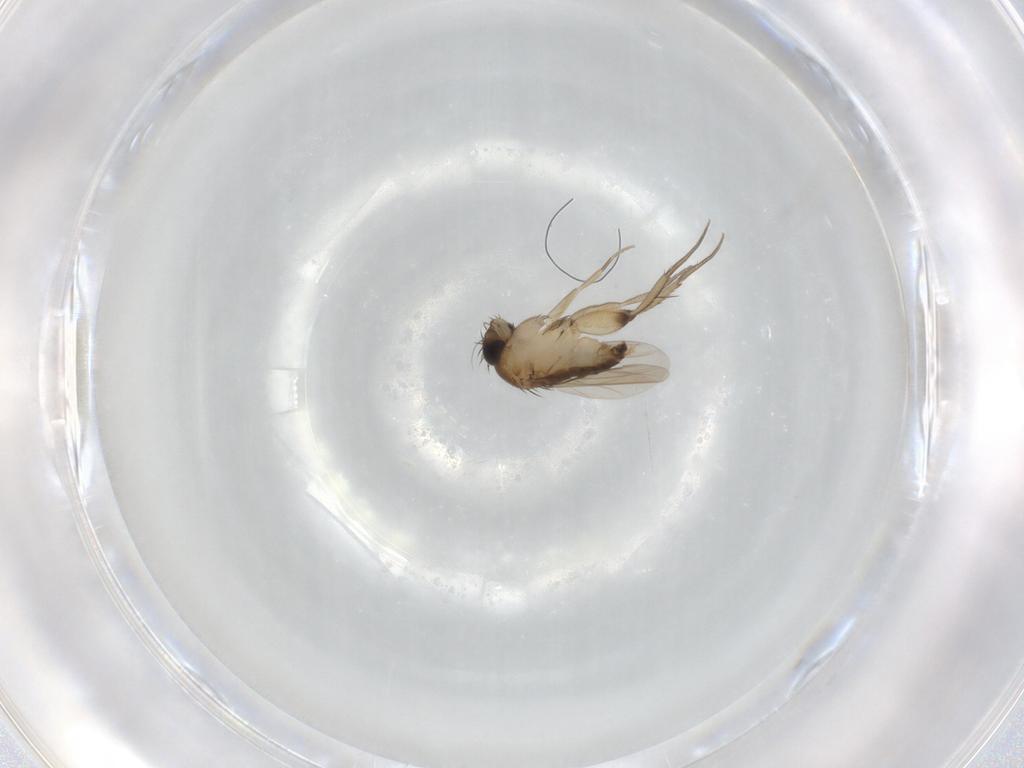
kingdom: Animalia
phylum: Arthropoda
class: Insecta
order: Diptera
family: Phoridae
